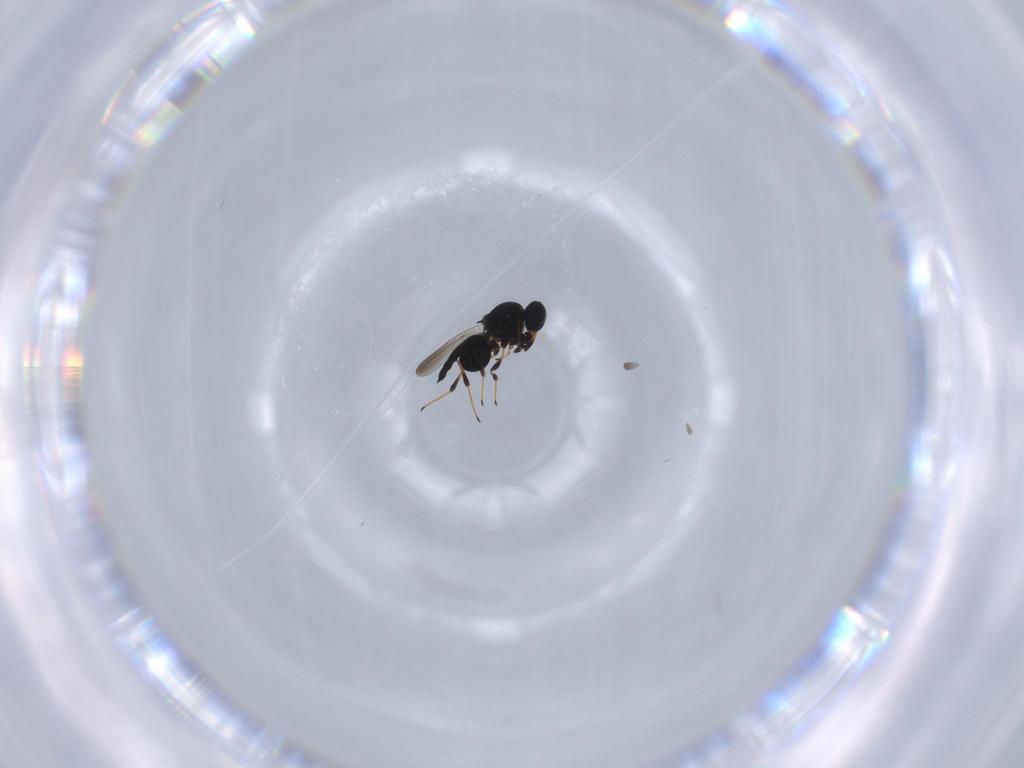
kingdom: Animalia
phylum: Arthropoda
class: Insecta
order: Hymenoptera
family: Platygastridae
